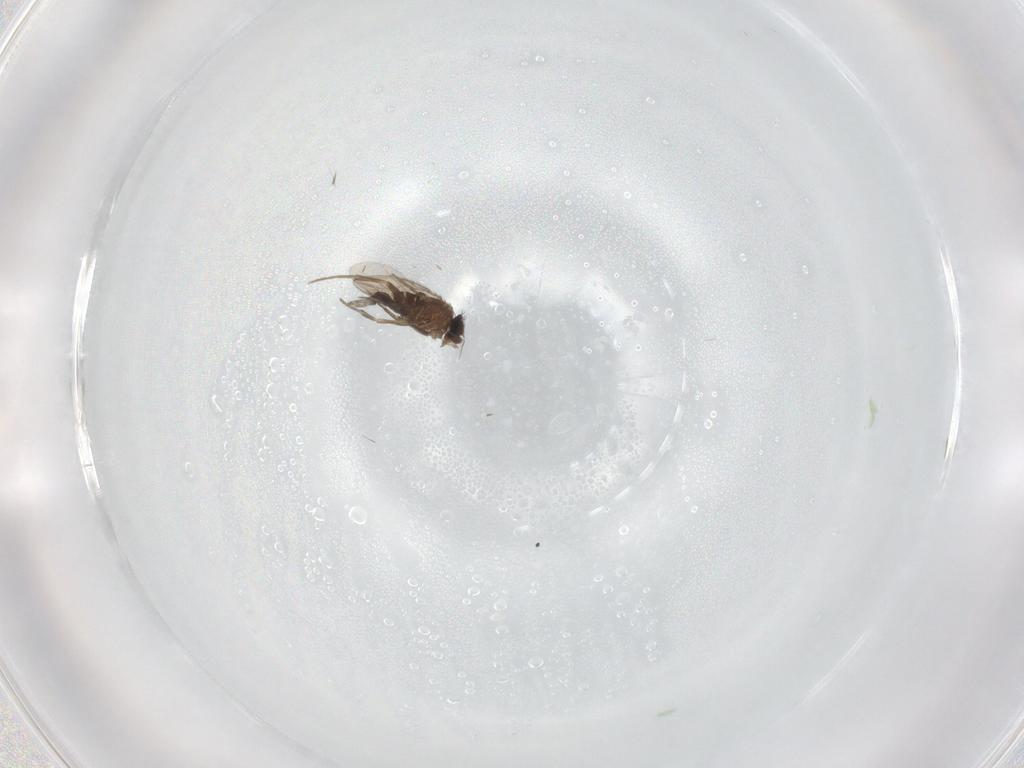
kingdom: Animalia
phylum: Arthropoda
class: Insecta
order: Diptera
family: Phoridae
